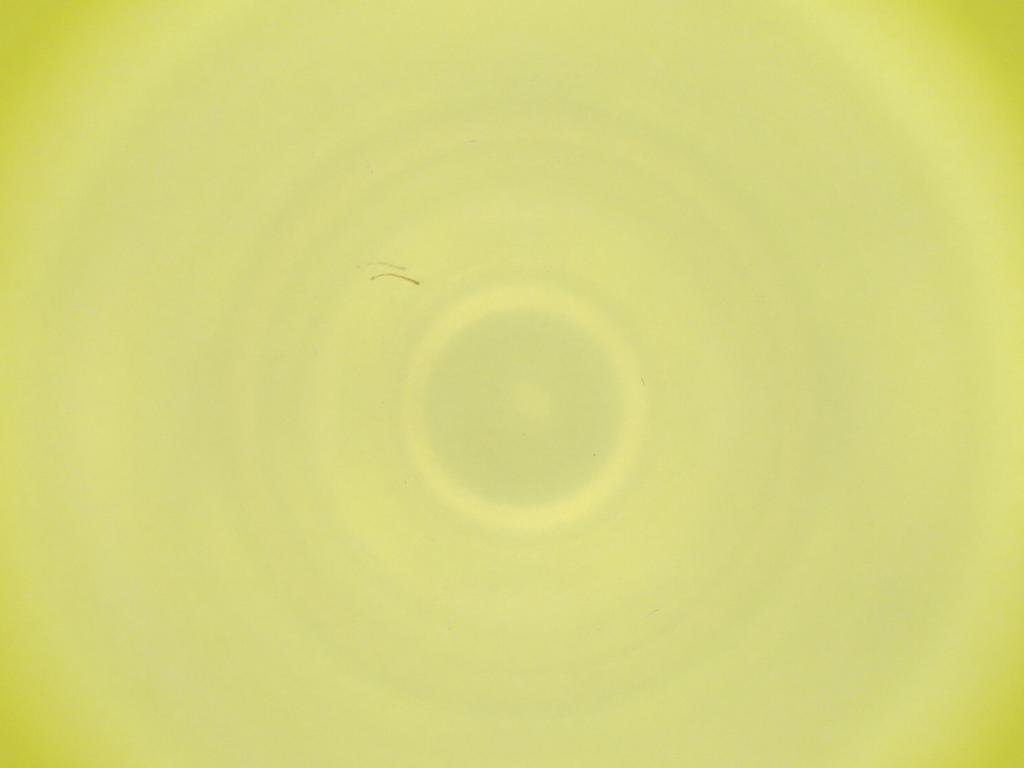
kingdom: Animalia
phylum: Arthropoda
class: Insecta
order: Diptera
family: Cecidomyiidae
